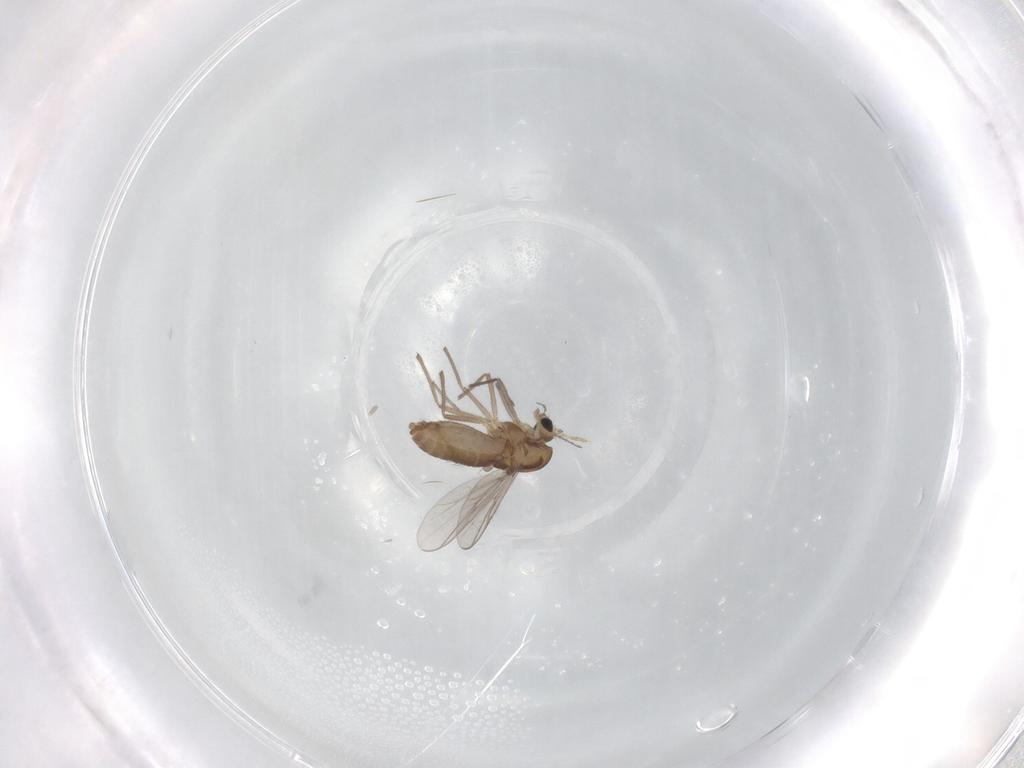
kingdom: Animalia
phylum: Arthropoda
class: Insecta
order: Diptera
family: Chironomidae
